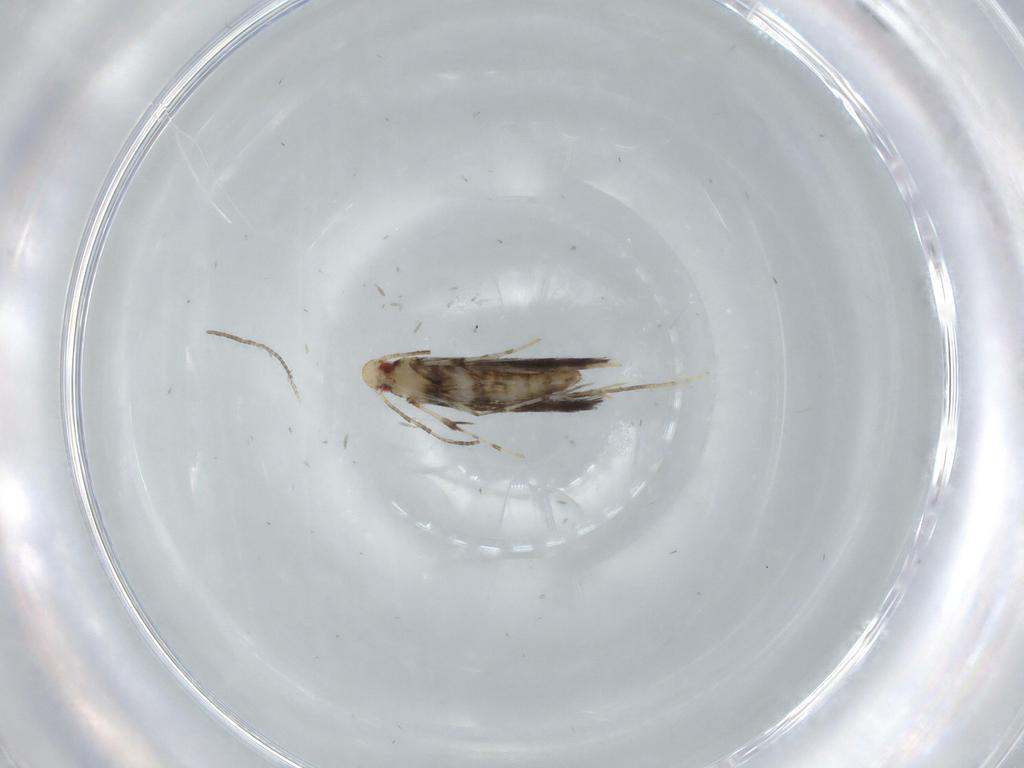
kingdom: Animalia
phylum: Arthropoda
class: Insecta
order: Lepidoptera
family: Gracillariidae
